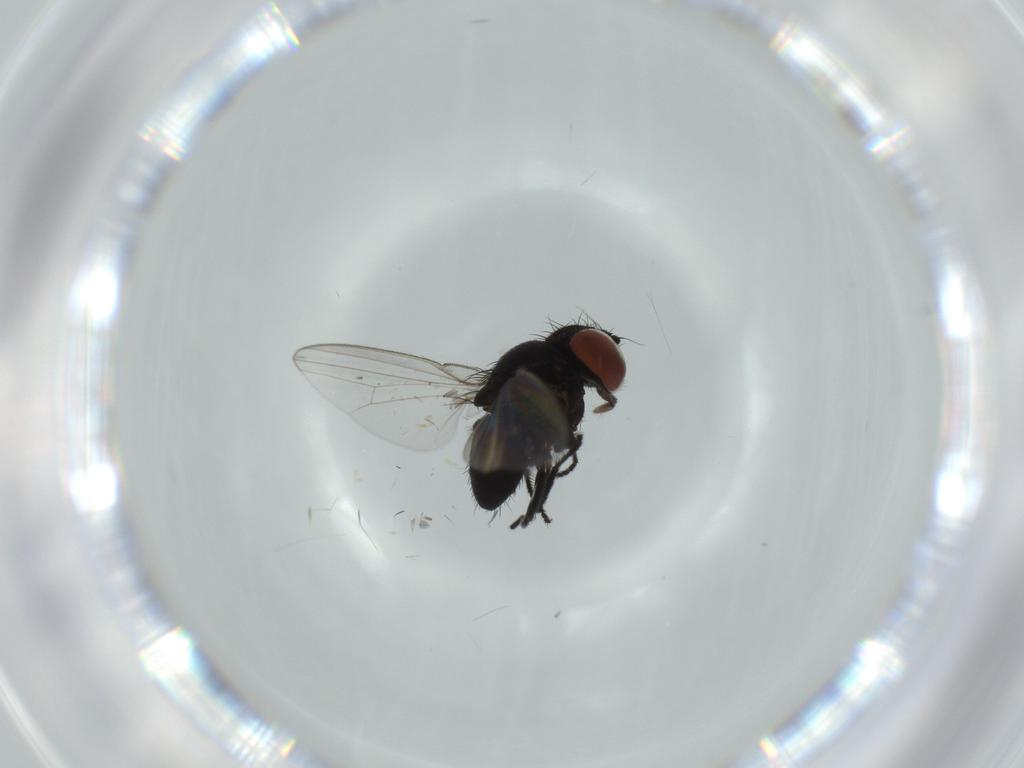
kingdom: Animalia
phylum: Arthropoda
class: Insecta
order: Diptera
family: Milichiidae
